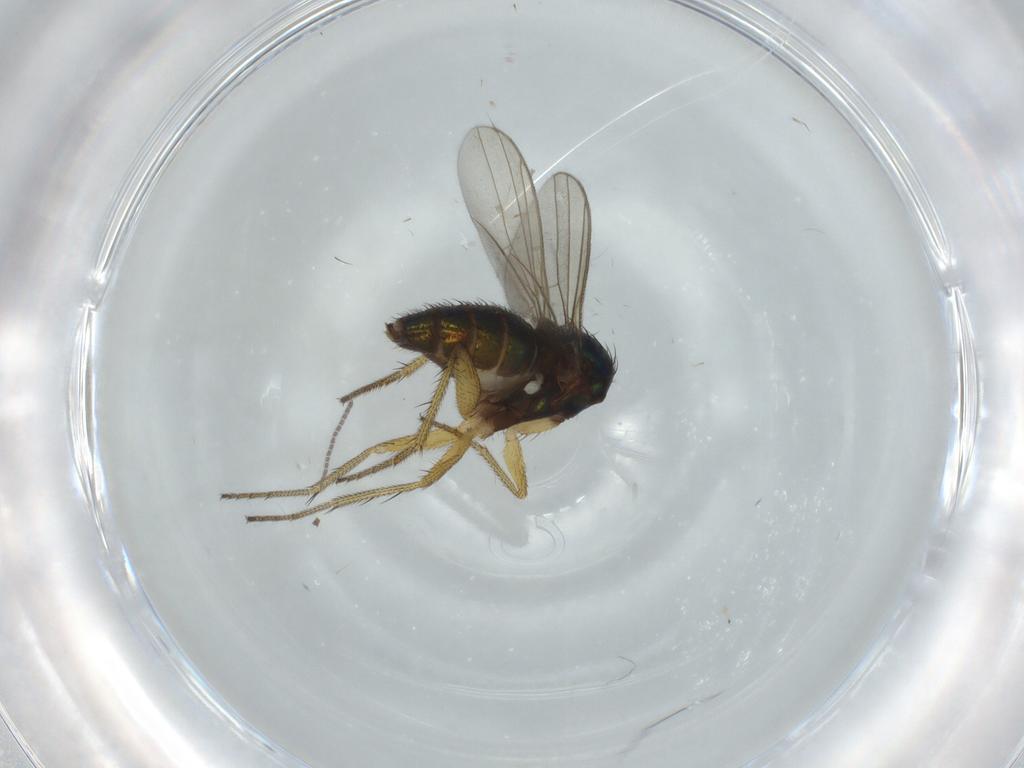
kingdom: Animalia
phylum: Arthropoda
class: Insecta
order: Diptera
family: Sciaridae
